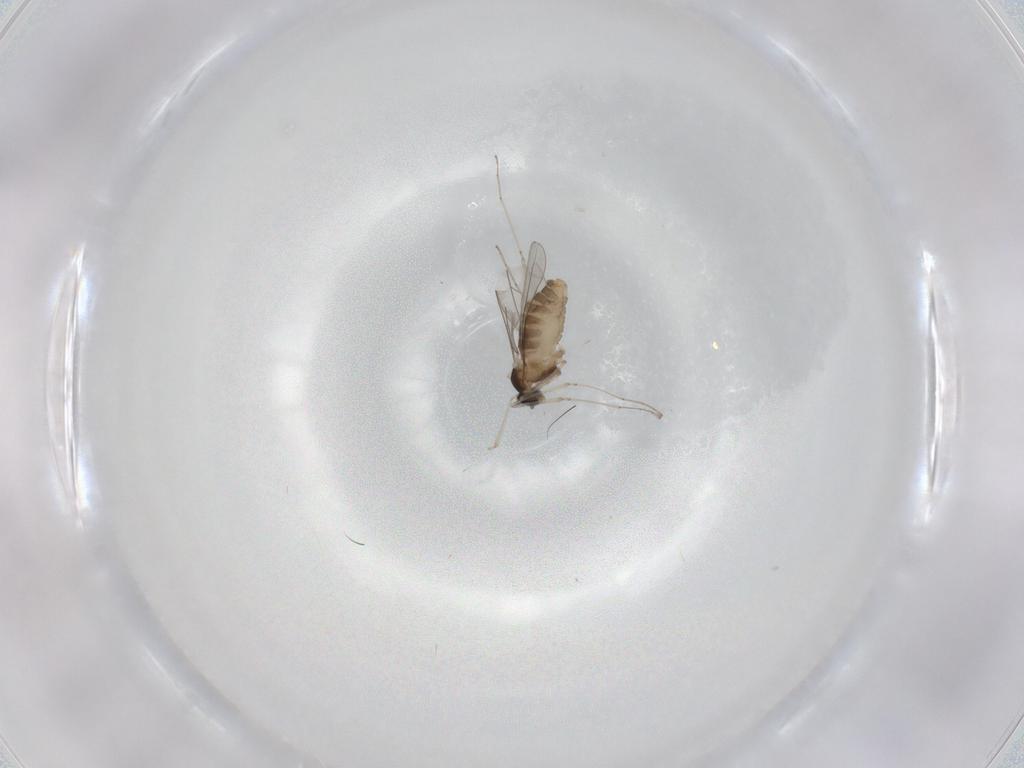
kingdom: Animalia
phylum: Arthropoda
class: Insecta
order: Diptera
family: Cecidomyiidae
